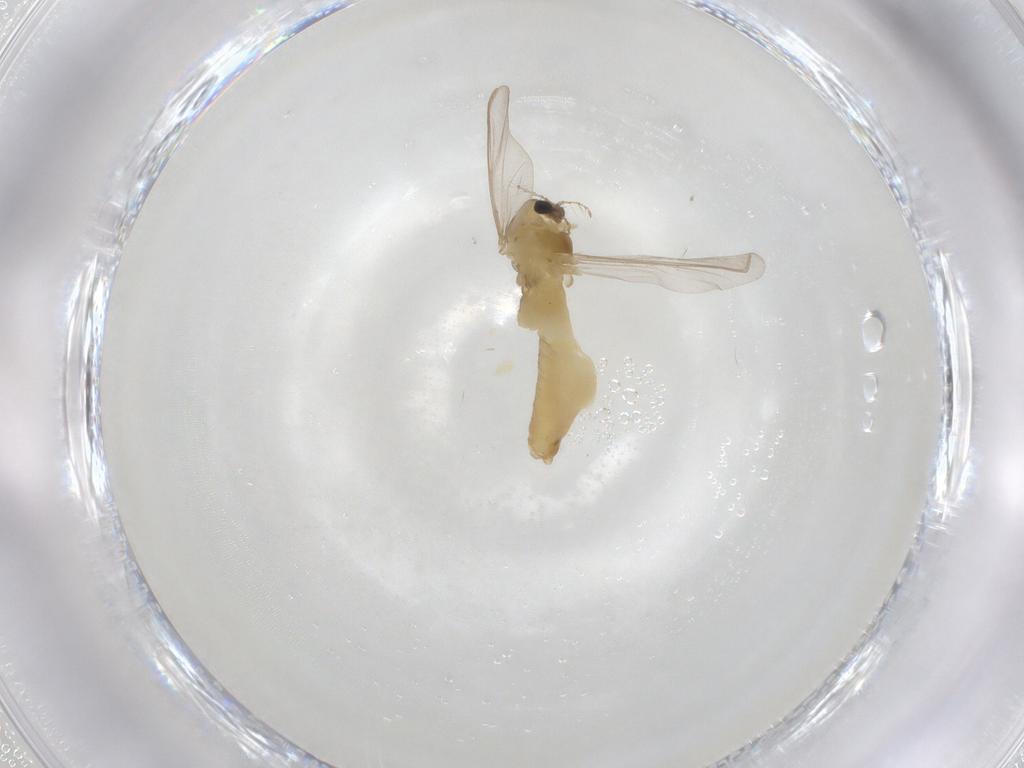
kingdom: Animalia
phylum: Arthropoda
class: Insecta
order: Diptera
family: Chironomidae
